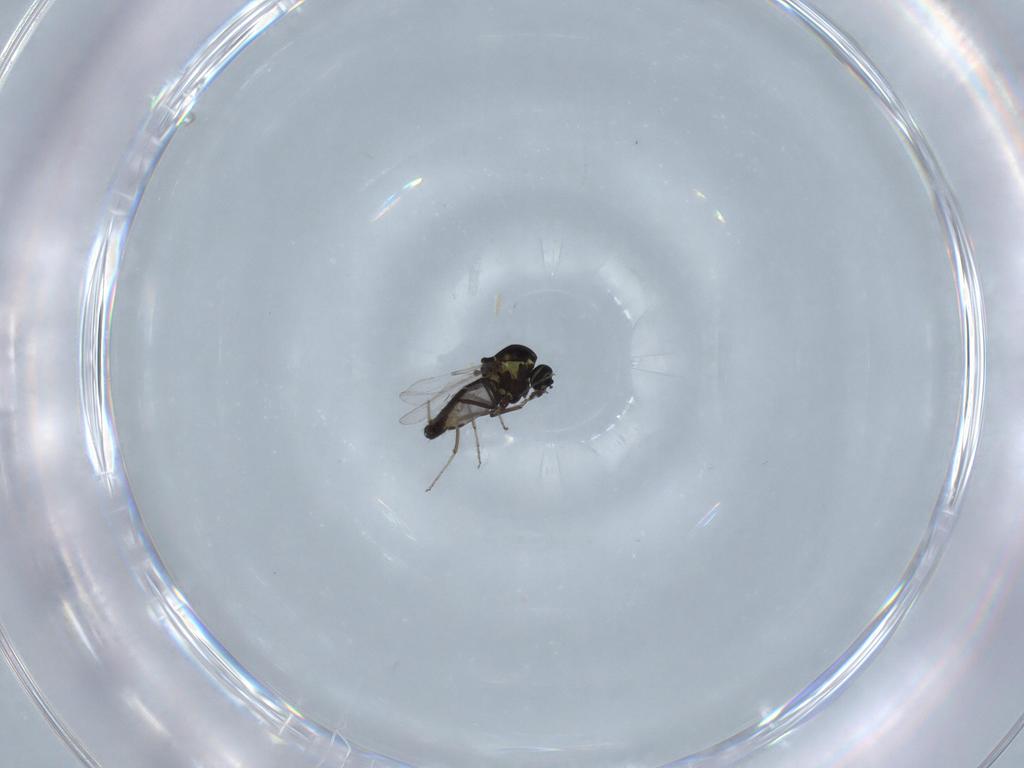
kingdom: Animalia
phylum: Arthropoda
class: Insecta
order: Diptera
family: Ceratopogonidae
